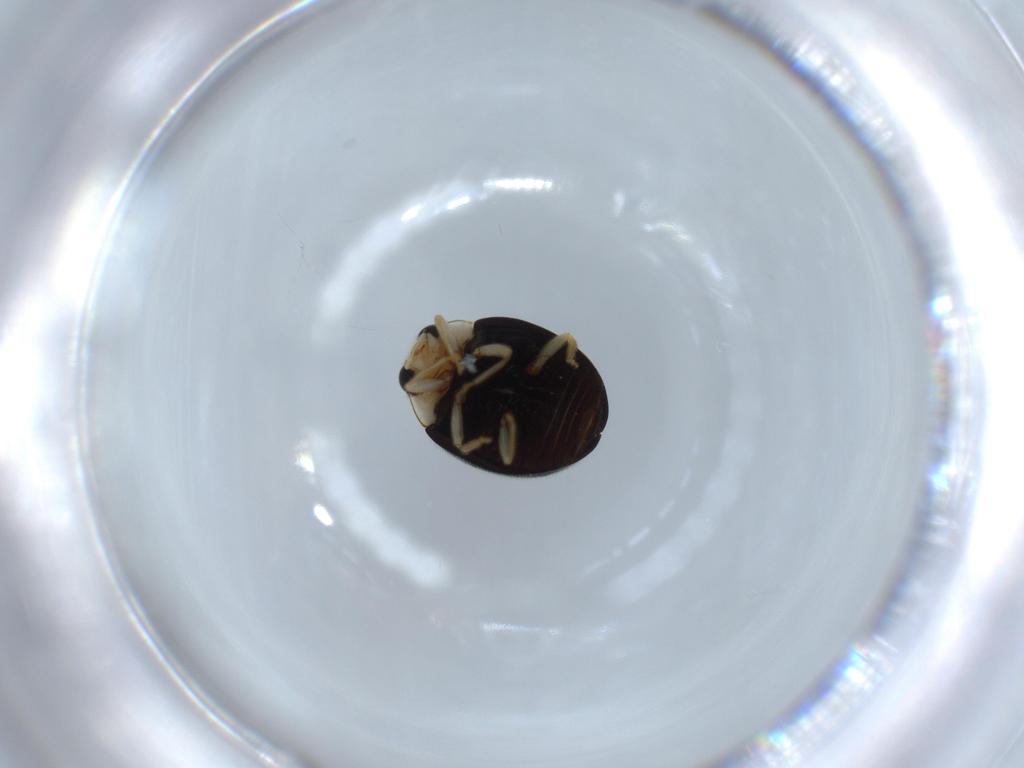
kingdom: Animalia
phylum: Arthropoda
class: Insecta
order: Coleoptera
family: Coccinellidae
